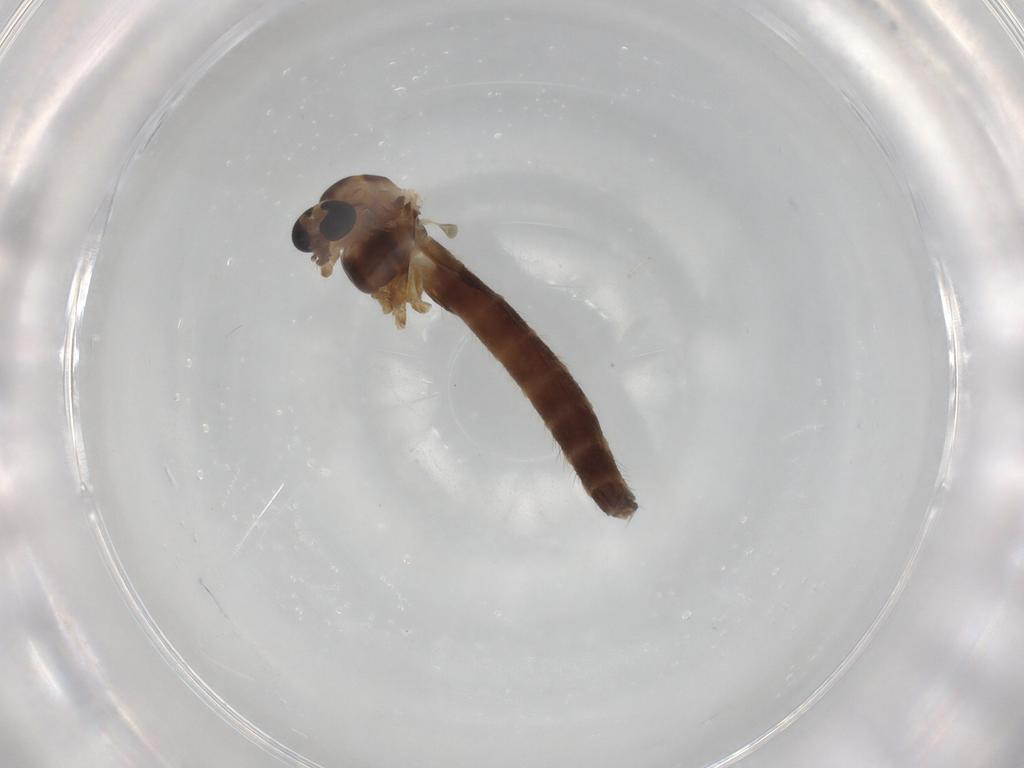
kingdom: Animalia
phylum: Arthropoda
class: Insecta
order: Diptera
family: Chironomidae
